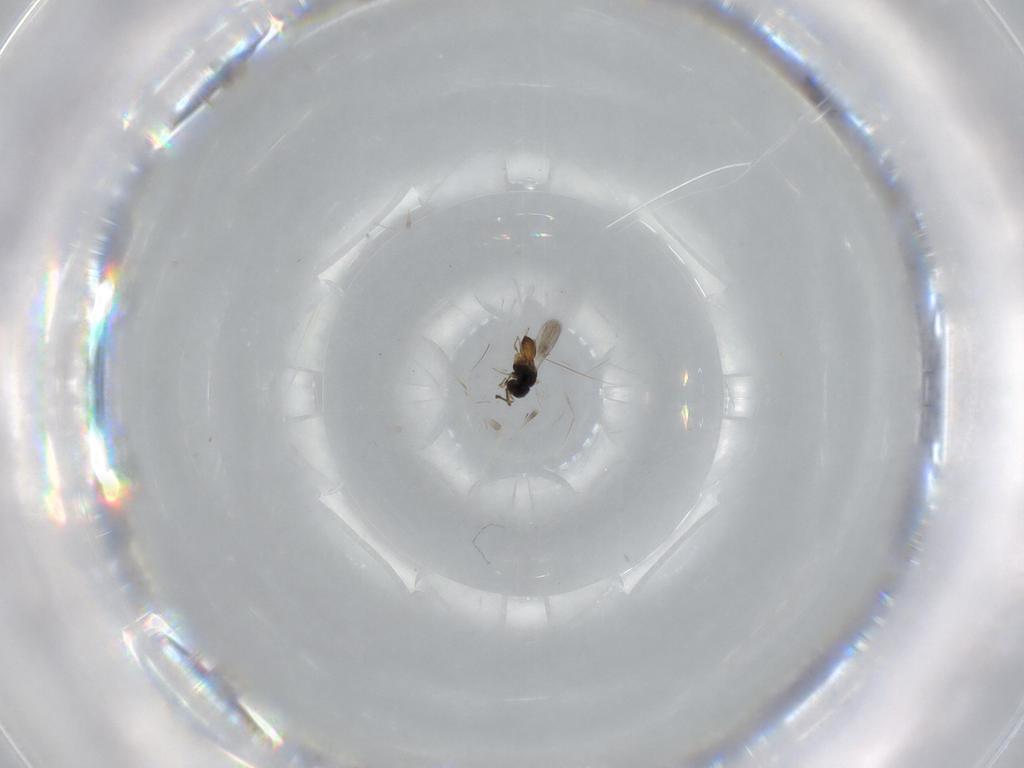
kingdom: Animalia
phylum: Arthropoda
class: Insecta
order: Hymenoptera
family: Scelionidae
